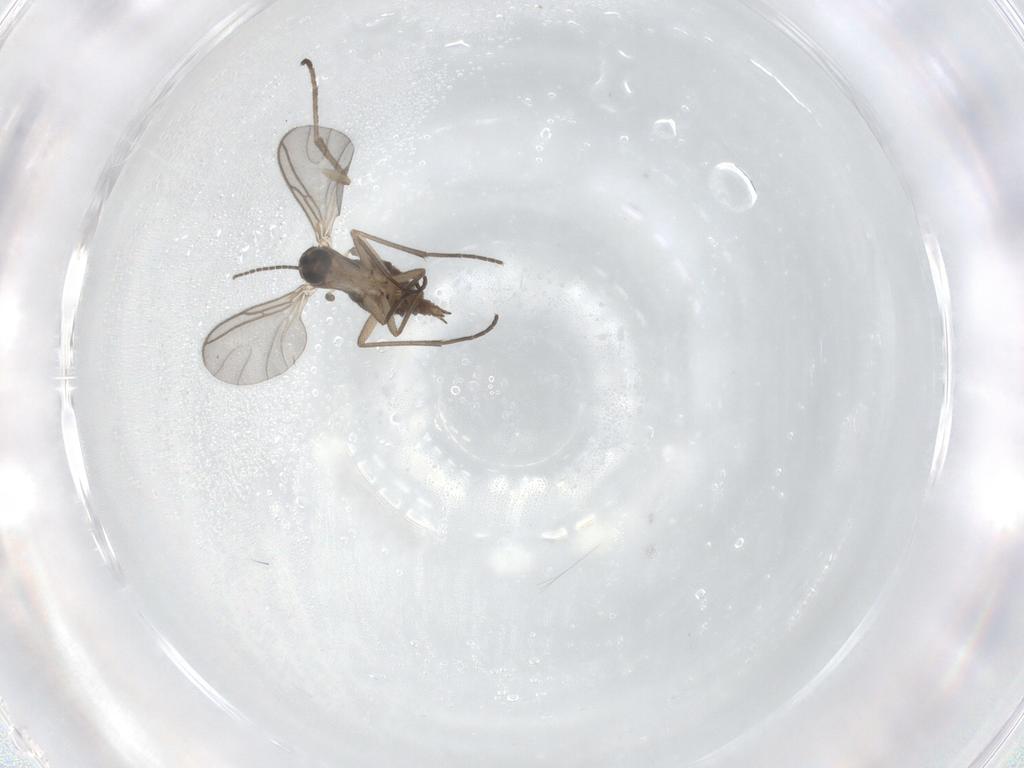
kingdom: Animalia
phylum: Arthropoda
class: Insecta
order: Diptera
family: Cecidomyiidae
